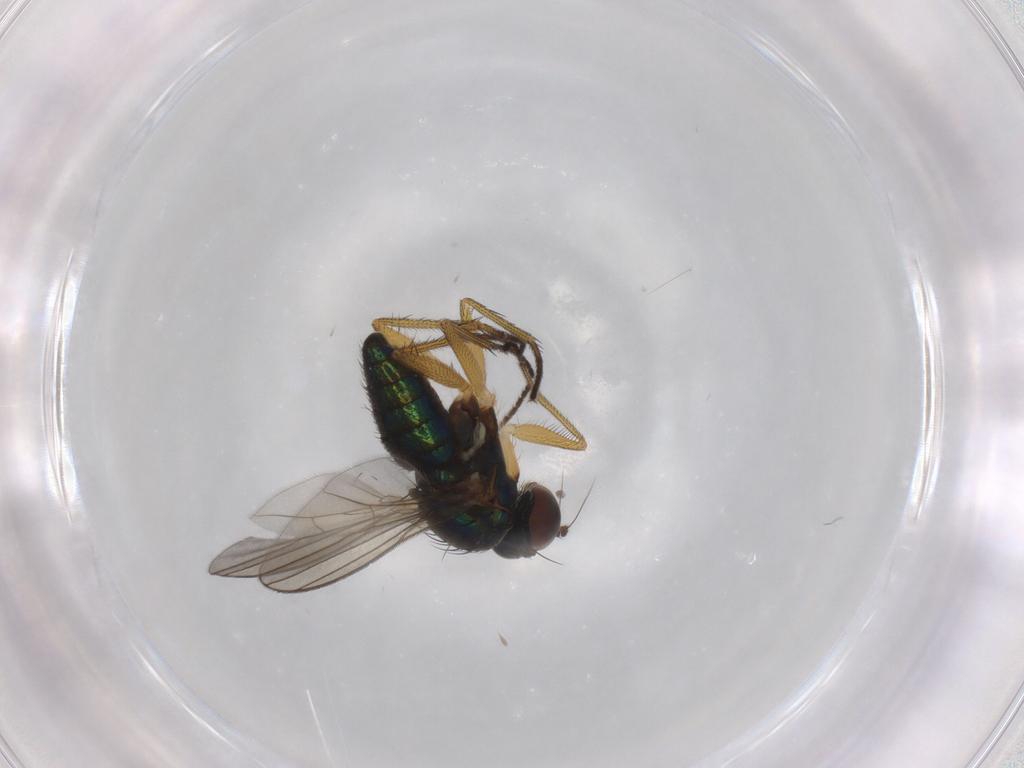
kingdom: Animalia
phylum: Arthropoda
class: Insecta
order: Diptera
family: Dolichopodidae
